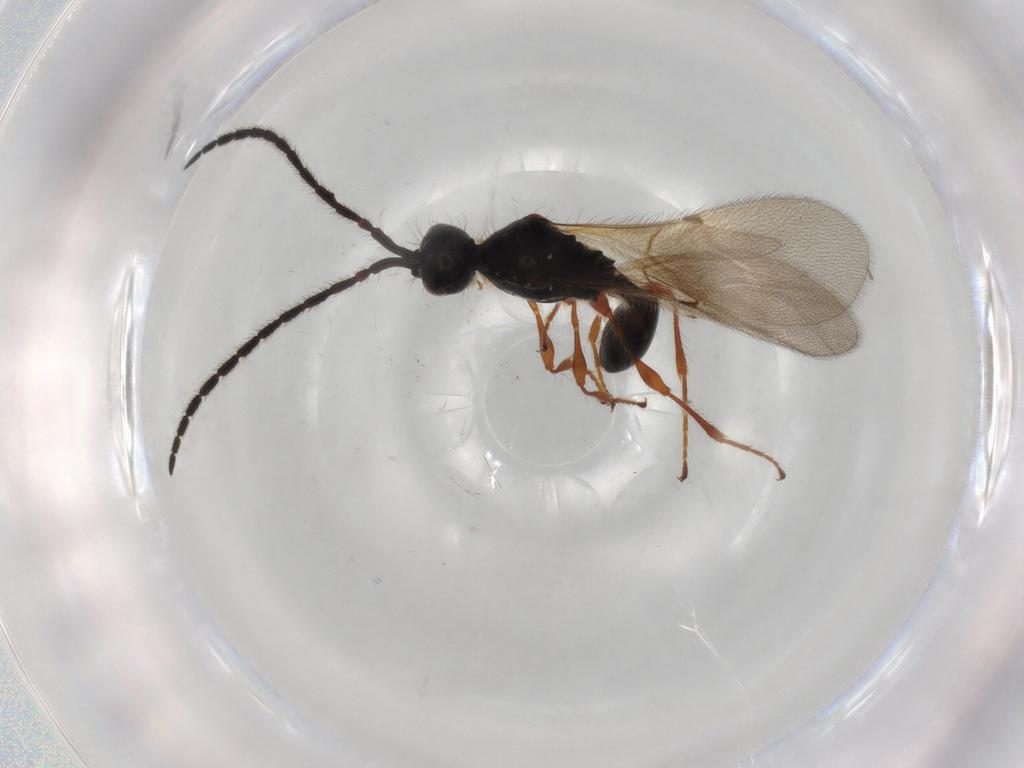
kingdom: Animalia
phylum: Arthropoda
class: Insecta
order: Hymenoptera
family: Diapriidae
